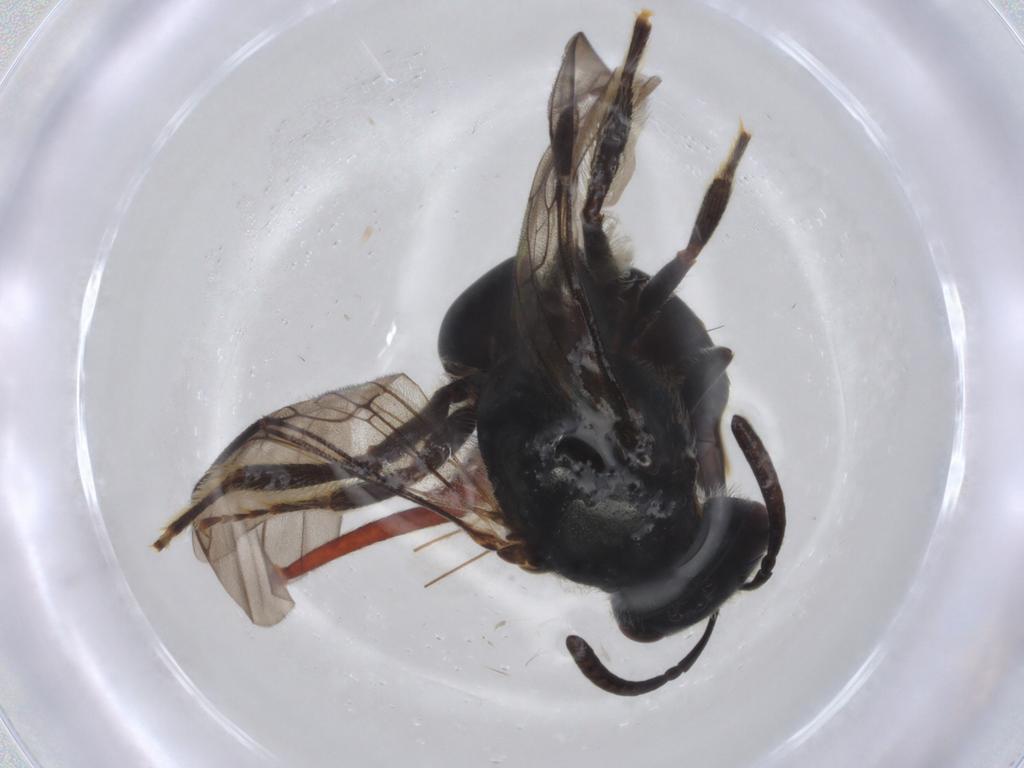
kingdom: Animalia
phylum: Arthropoda
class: Insecta
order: Hymenoptera
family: Scelionidae
